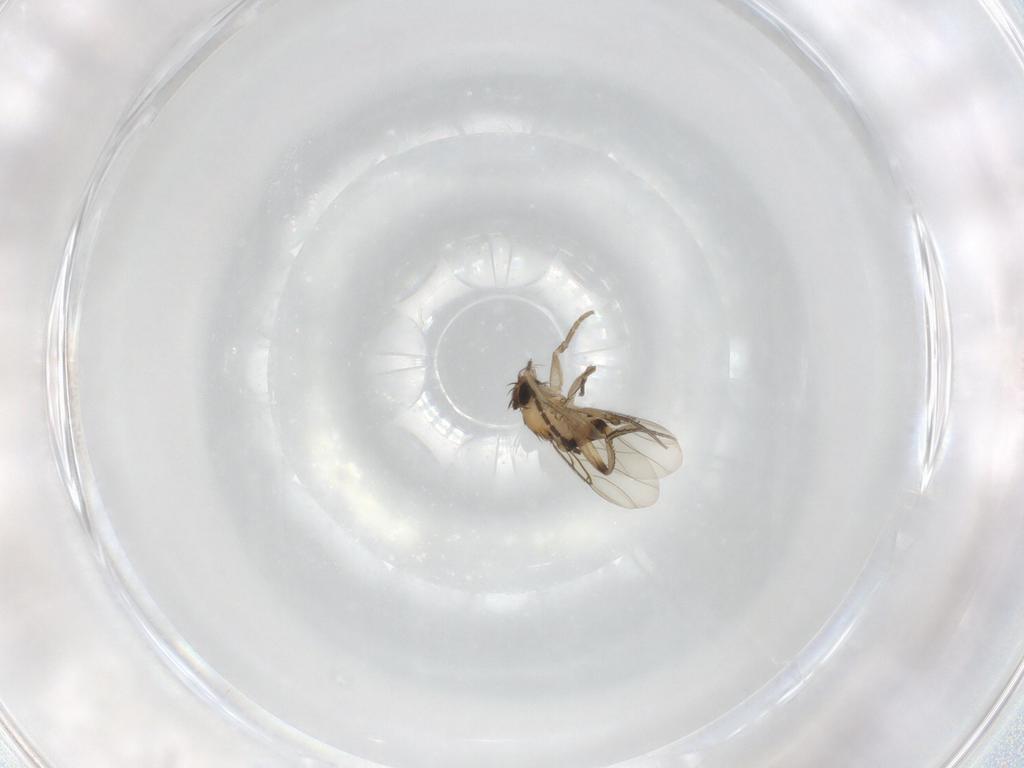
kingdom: Animalia
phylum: Arthropoda
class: Insecta
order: Diptera
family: Phoridae
